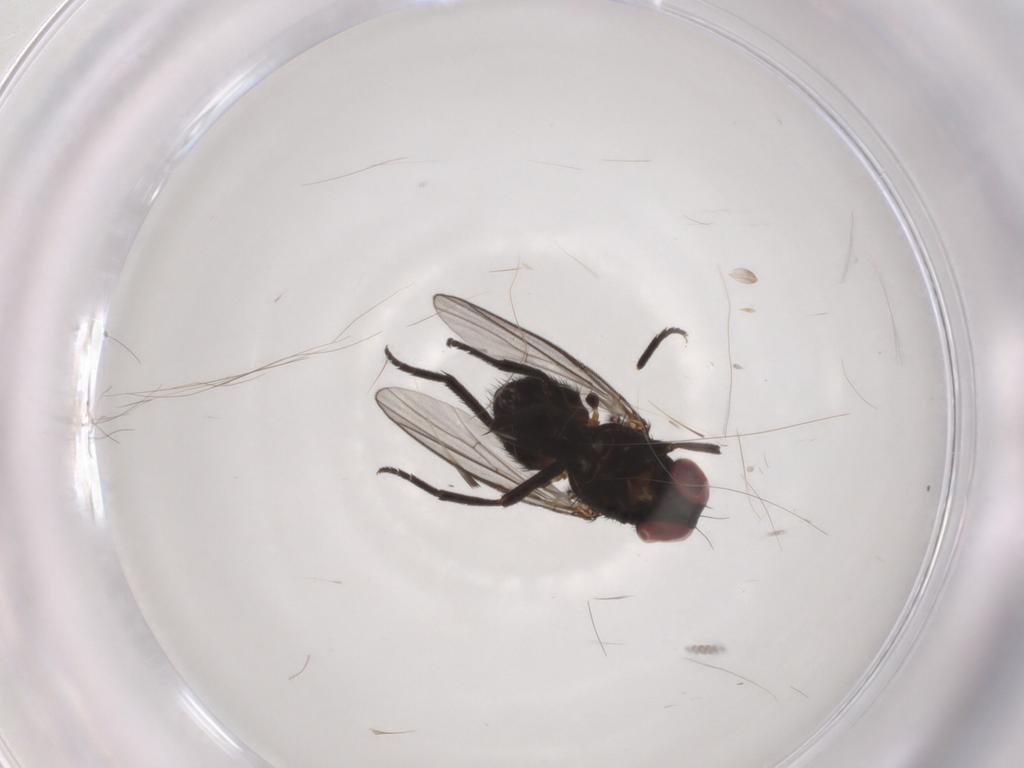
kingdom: Animalia
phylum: Arthropoda
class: Insecta
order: Diptera
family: Agromyzidae
